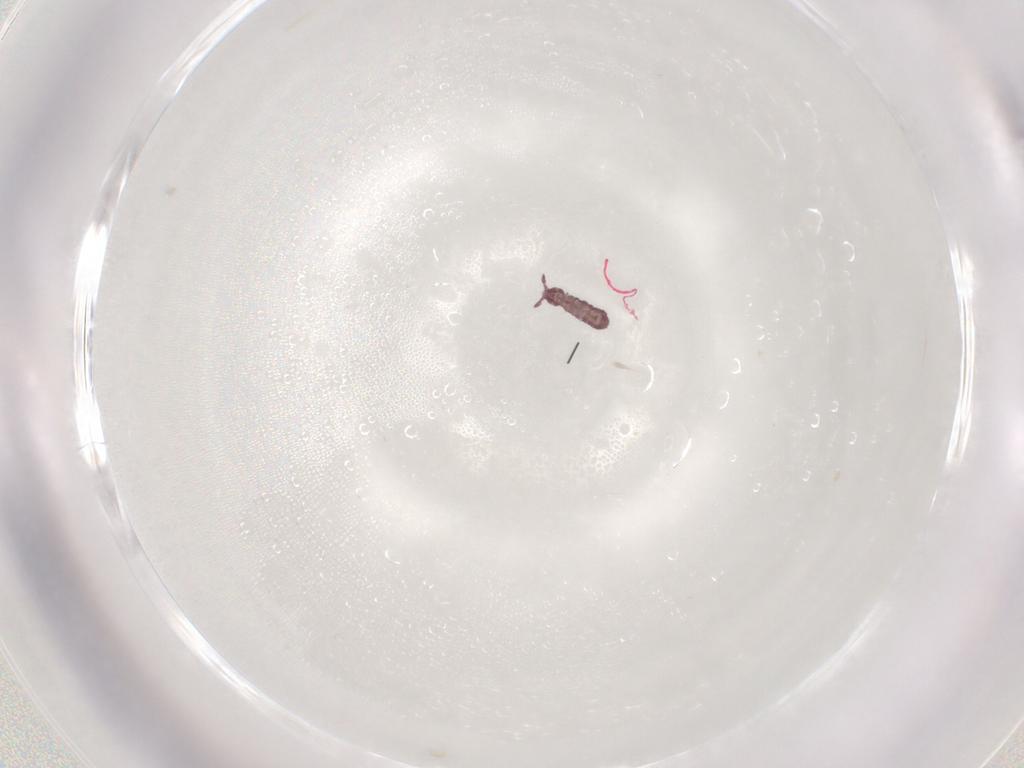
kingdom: Animalia
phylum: Arthropoda
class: Collembola
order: Poduromorpha
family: Hypogastruridae
